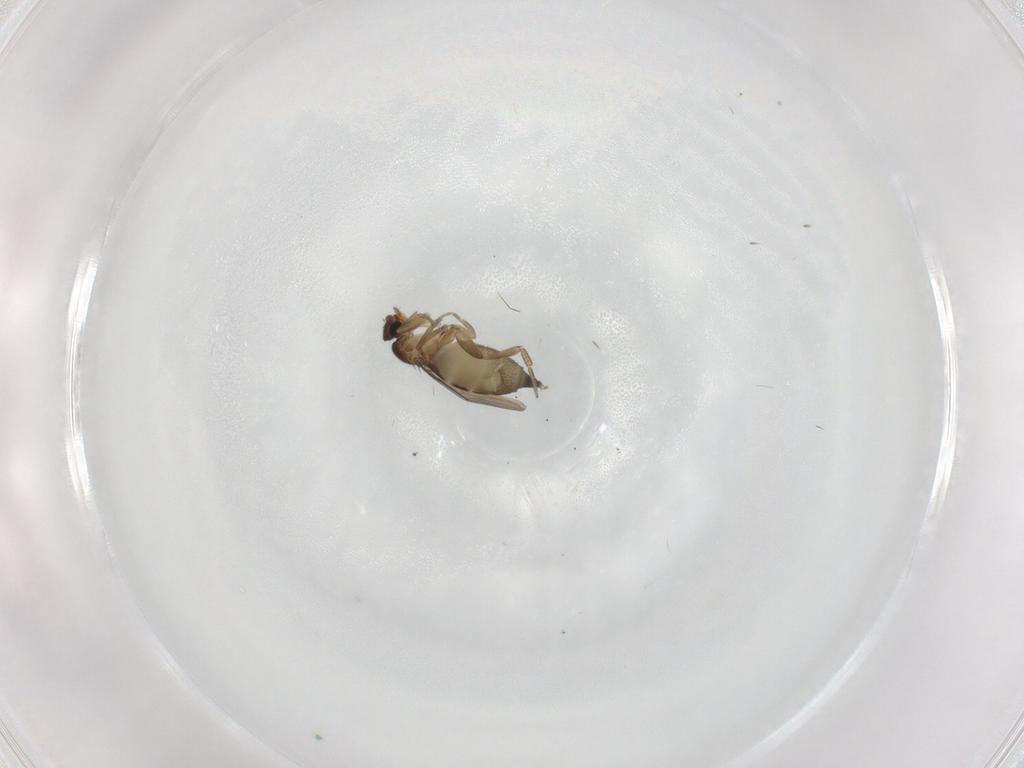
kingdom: Animalia
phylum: Arthropoda
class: Insecta
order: Diptera
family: Phoridae
